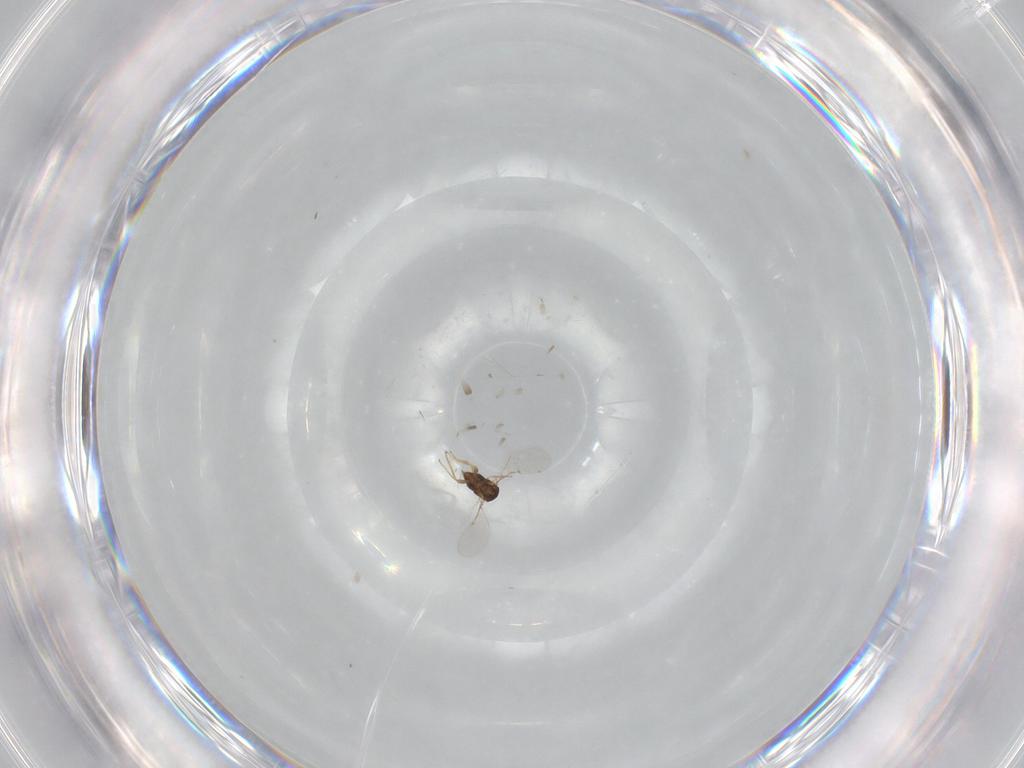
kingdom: Animalia
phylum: Arthropoda
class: Insecta
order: Hymenoptera
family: Encyrtidae
